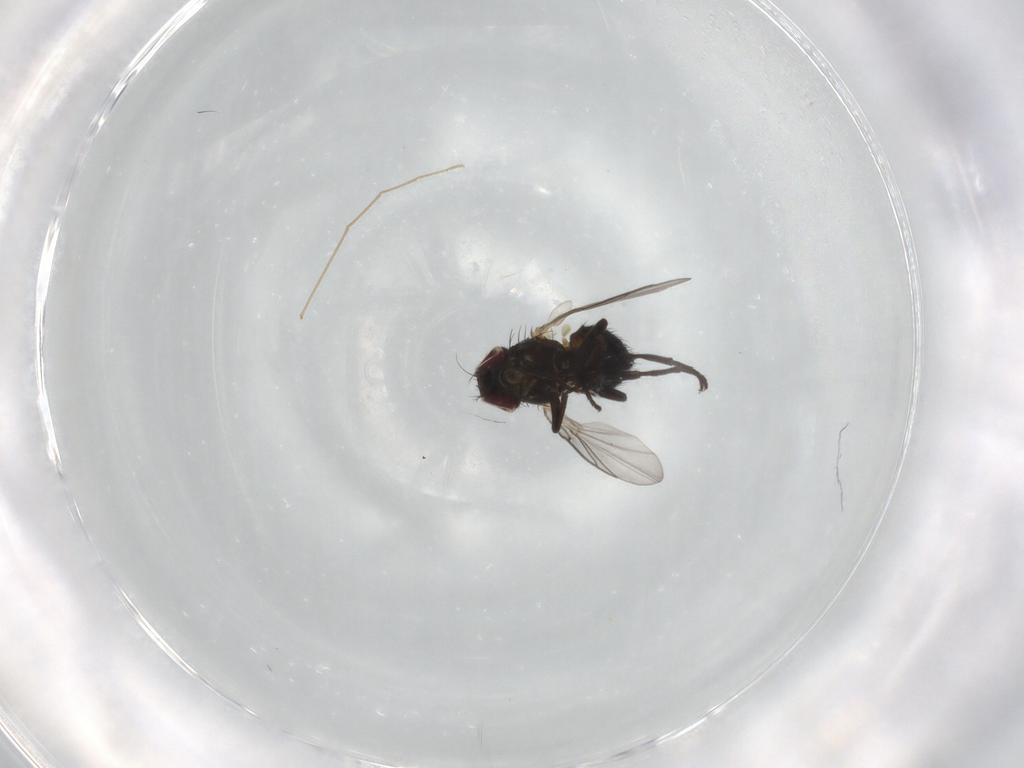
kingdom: Animalia
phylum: Arthropoda
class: Insecta
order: Diptera
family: Agromyzidae
